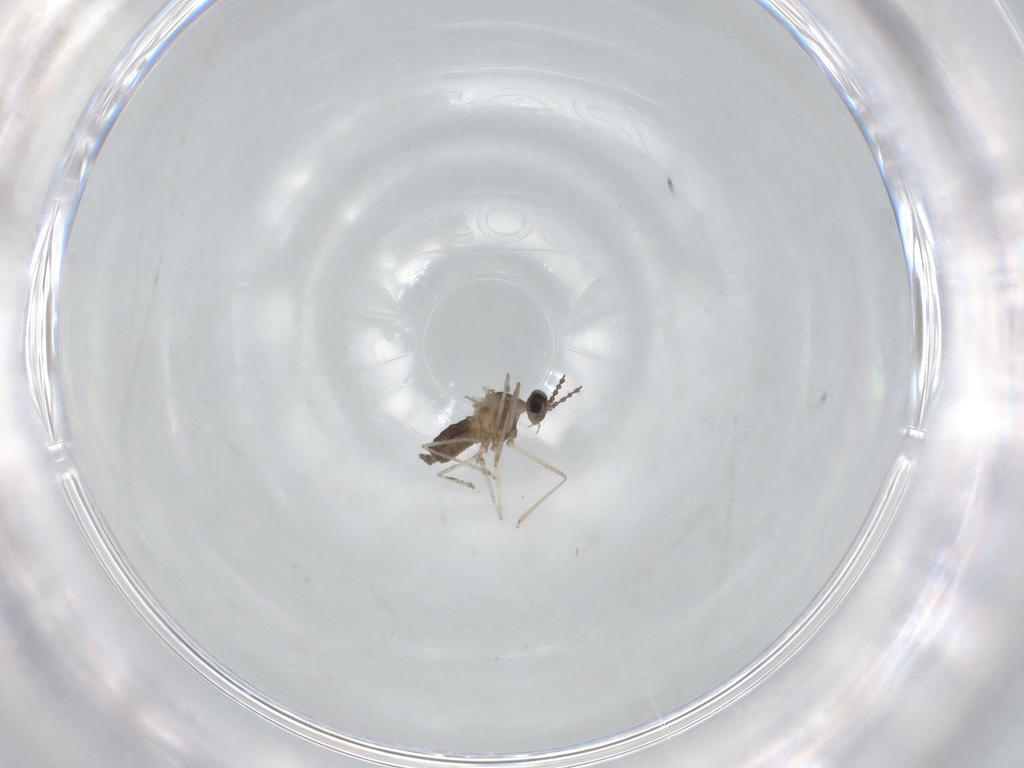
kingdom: Animalia
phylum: Arthropoda
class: Insecta
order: Diptera
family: Cecidomyiidae
